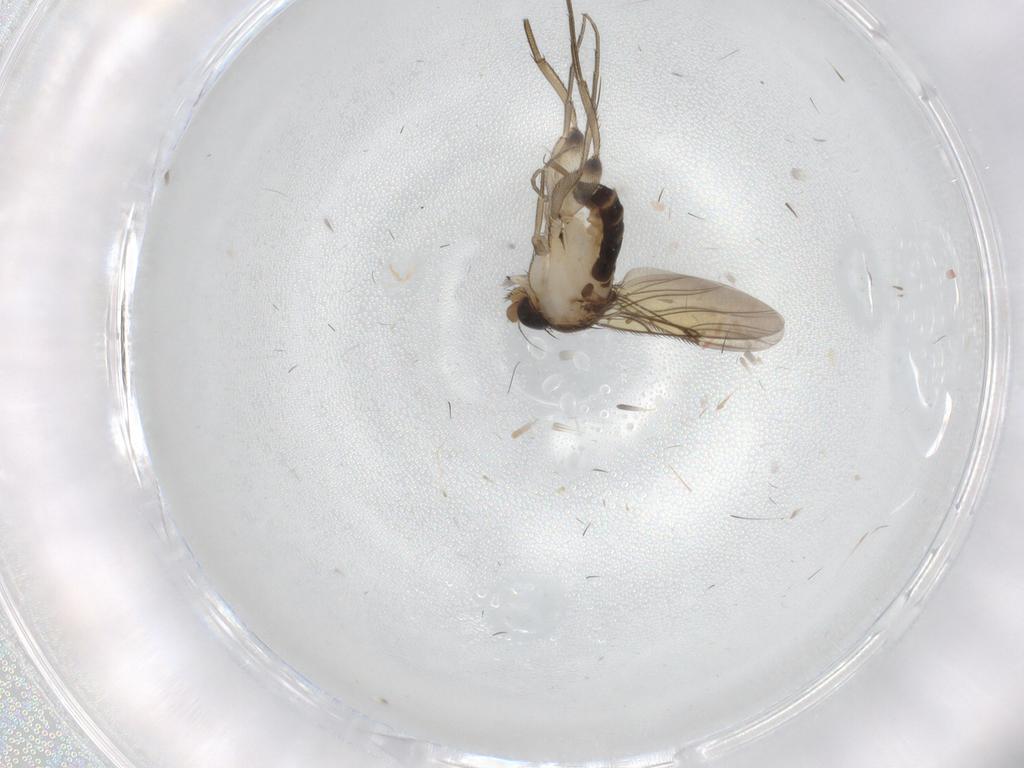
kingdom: Animalia
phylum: Arthropoda
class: Insecta
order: Diptera
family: Phoridae
